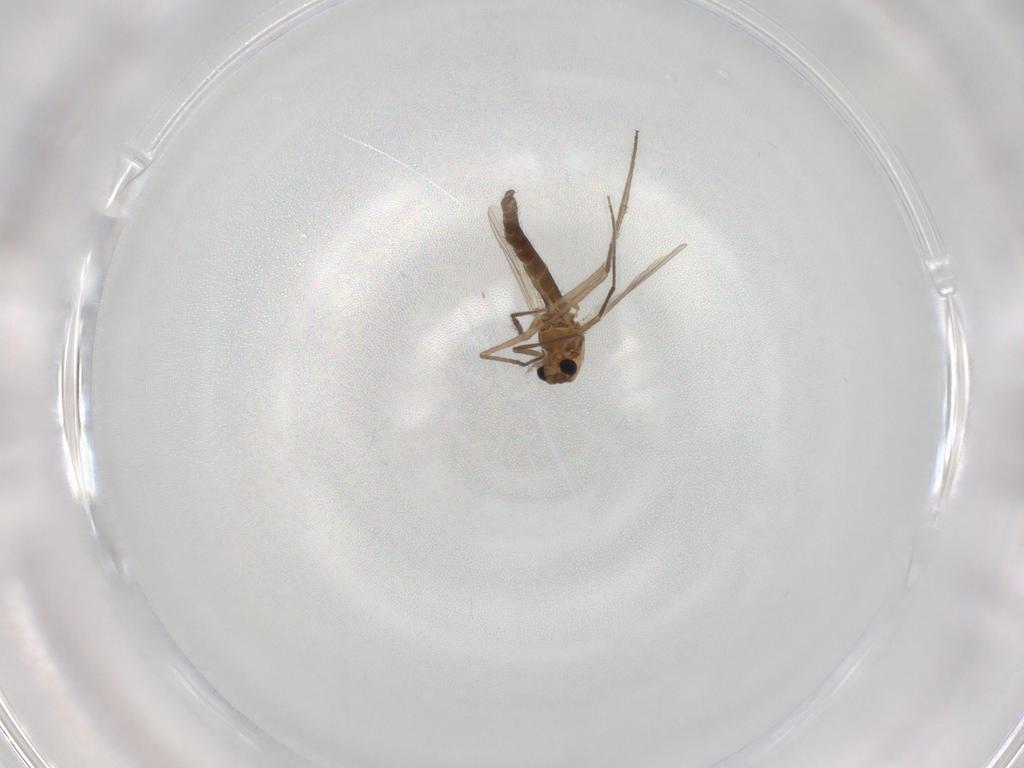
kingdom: Animalia
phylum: Arthropoda
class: Insecta
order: Diptera
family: Chironomidae
